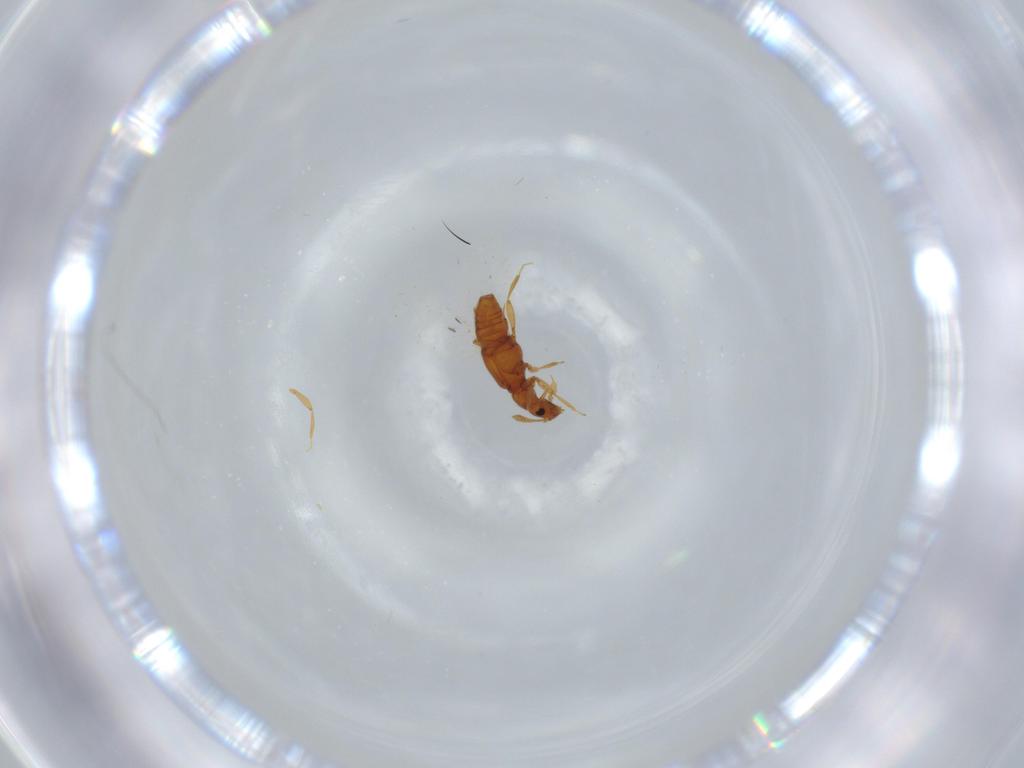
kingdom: Animalia
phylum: Arthropoda
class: Insecta
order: Coleoptera
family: Staphylinidae
